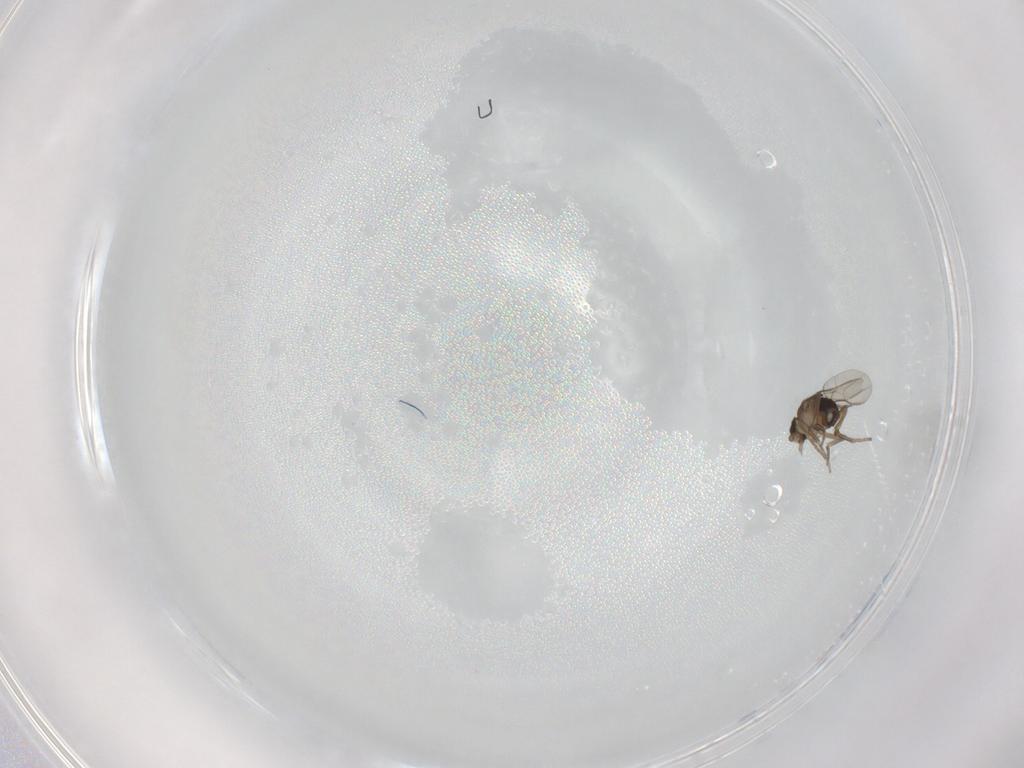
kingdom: Animalia
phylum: Arthropoda
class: Insecta
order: Diptera
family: Phoridae
